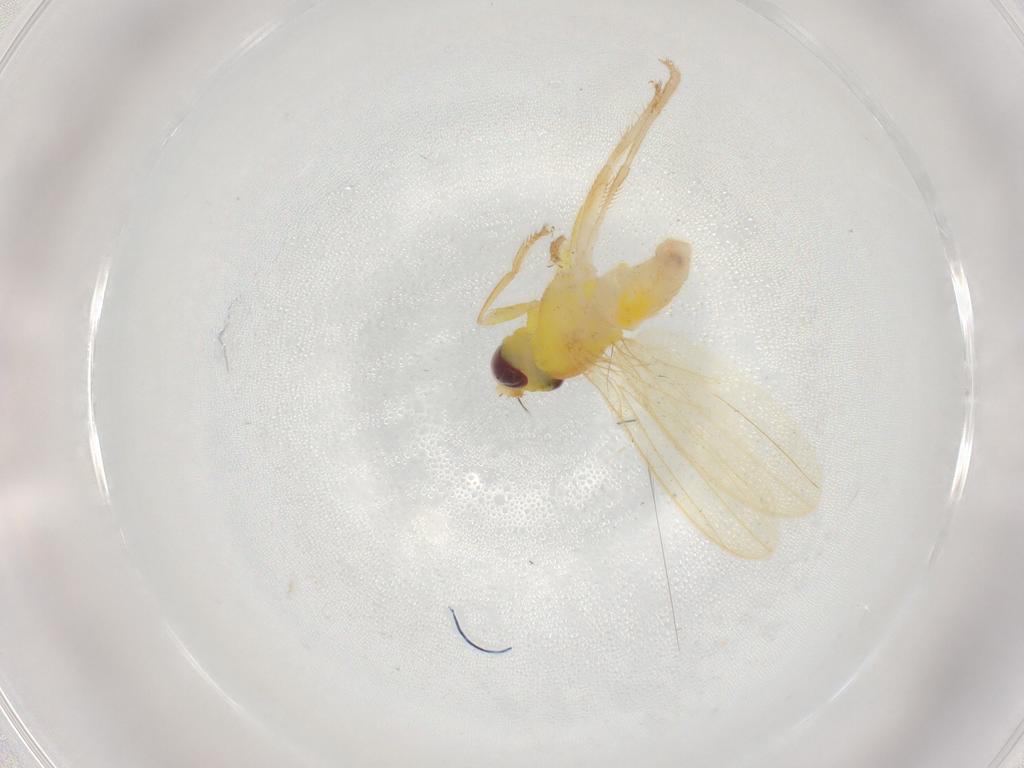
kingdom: Animalia
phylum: Arthropoda
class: Insecta
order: Diptera
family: Periscelididae
